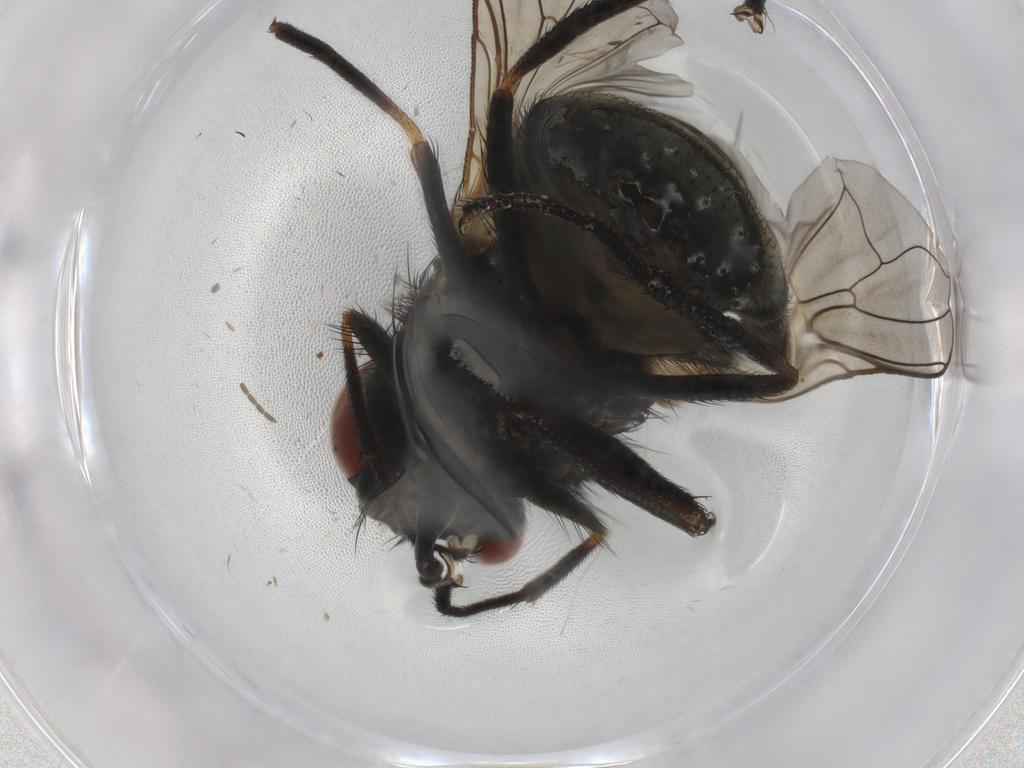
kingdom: Animalia
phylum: Arthropoda
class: Insecta
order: Diptera
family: Muscidae
